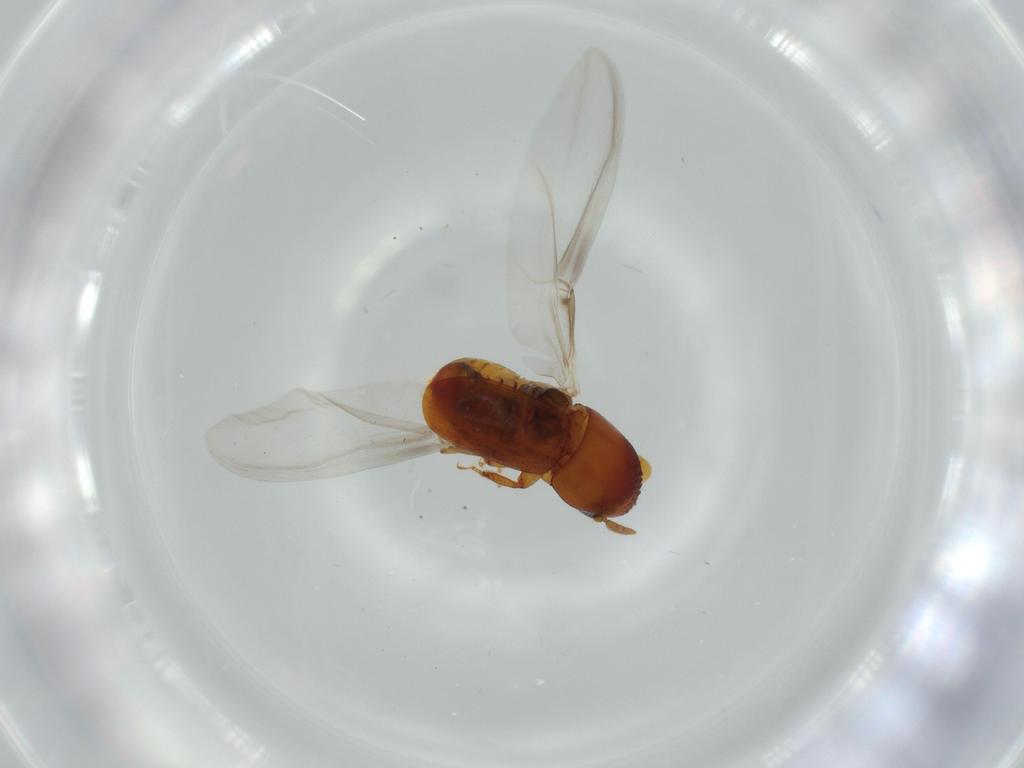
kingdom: Animalia
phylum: Arthropoda
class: Insecta
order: Coleoptera
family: Curculionidae
